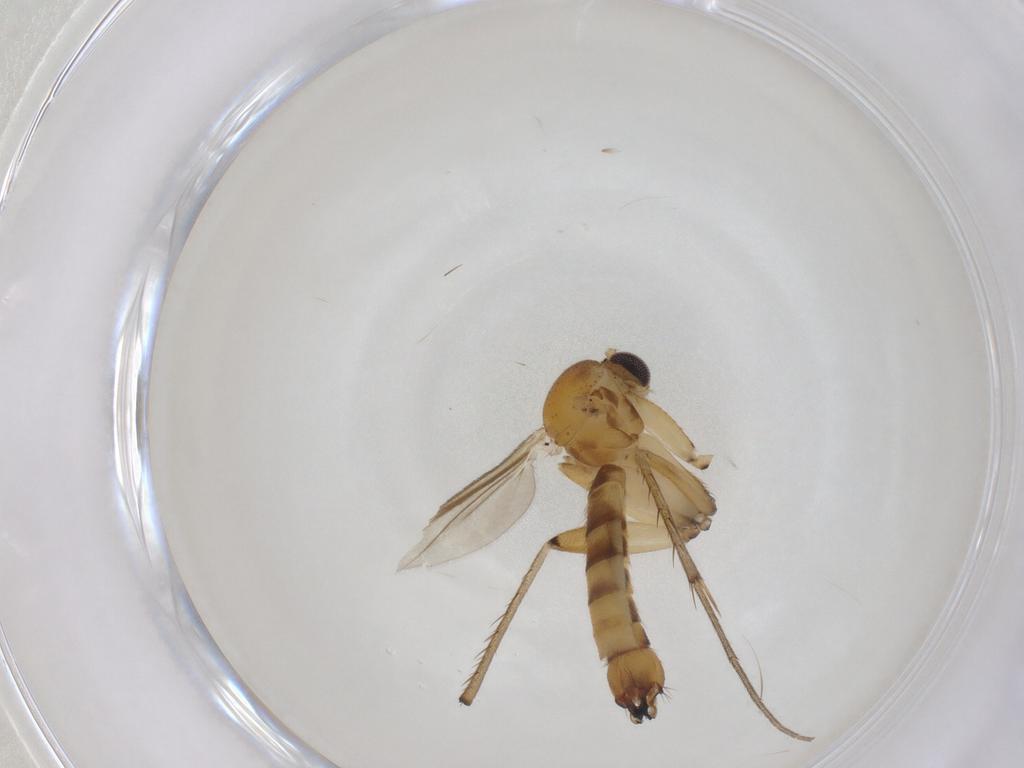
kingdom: Animalia
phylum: Arthropoda
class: Insecta
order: Diptera
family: Mycetophilidae
